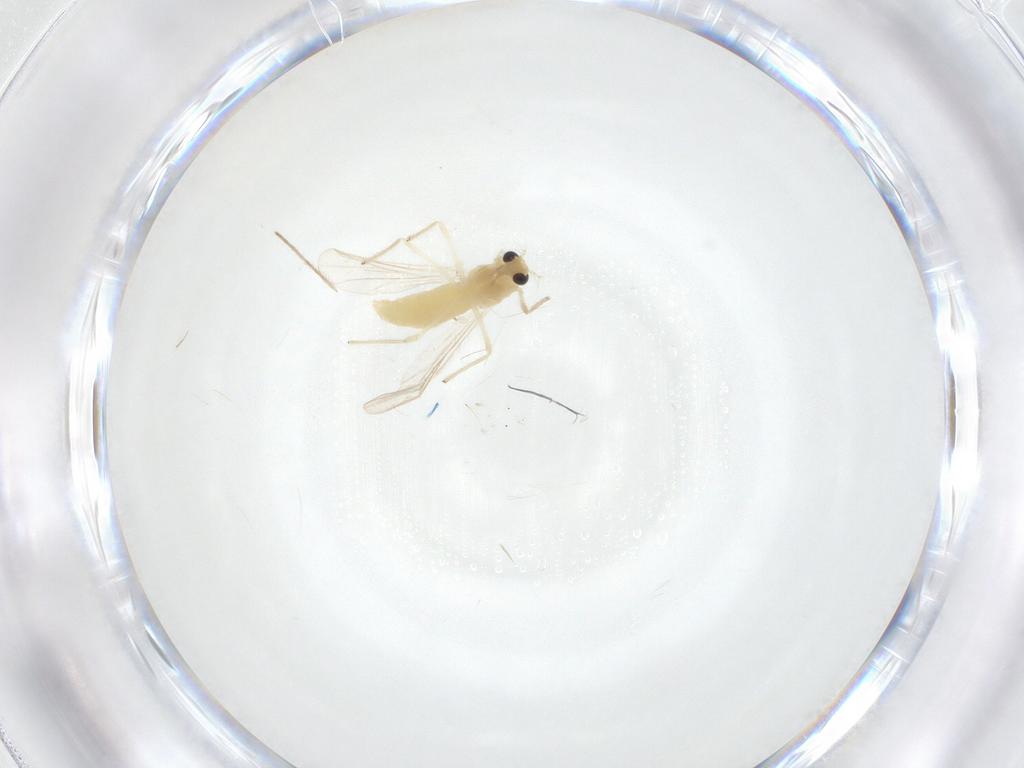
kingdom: Animalia
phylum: Arthropoda
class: Insecta
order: Diptera
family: Chironomidae
